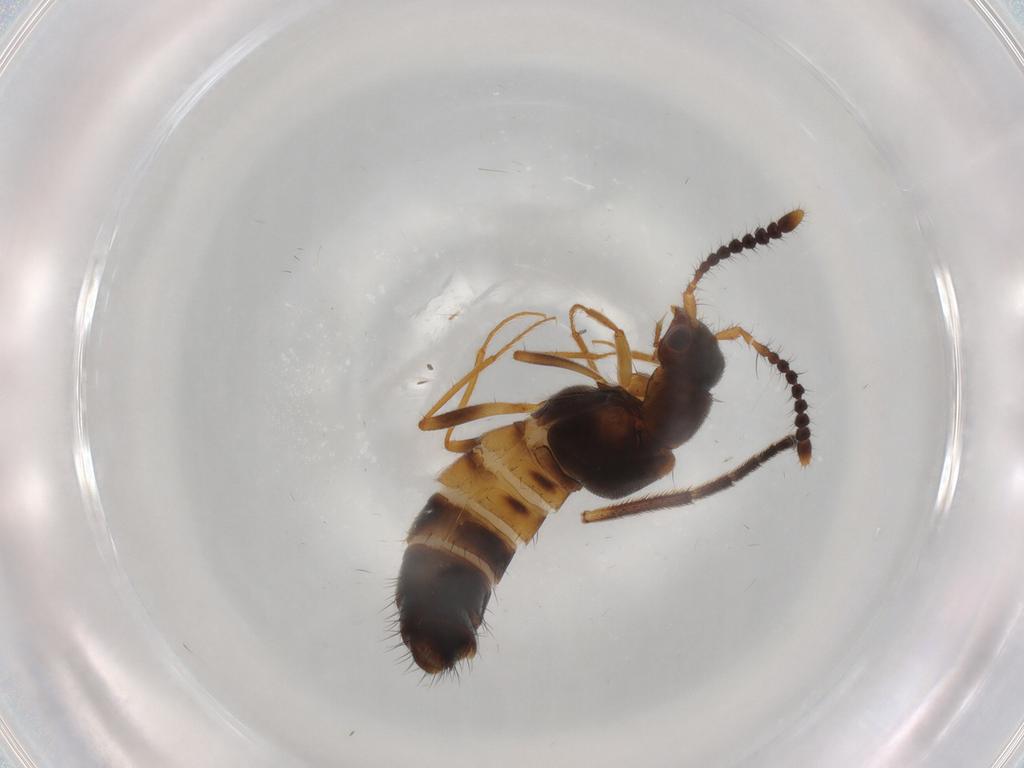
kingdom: Animalia
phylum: Arthropoda
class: Insecta
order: Coleoptera
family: Staphylinidae
